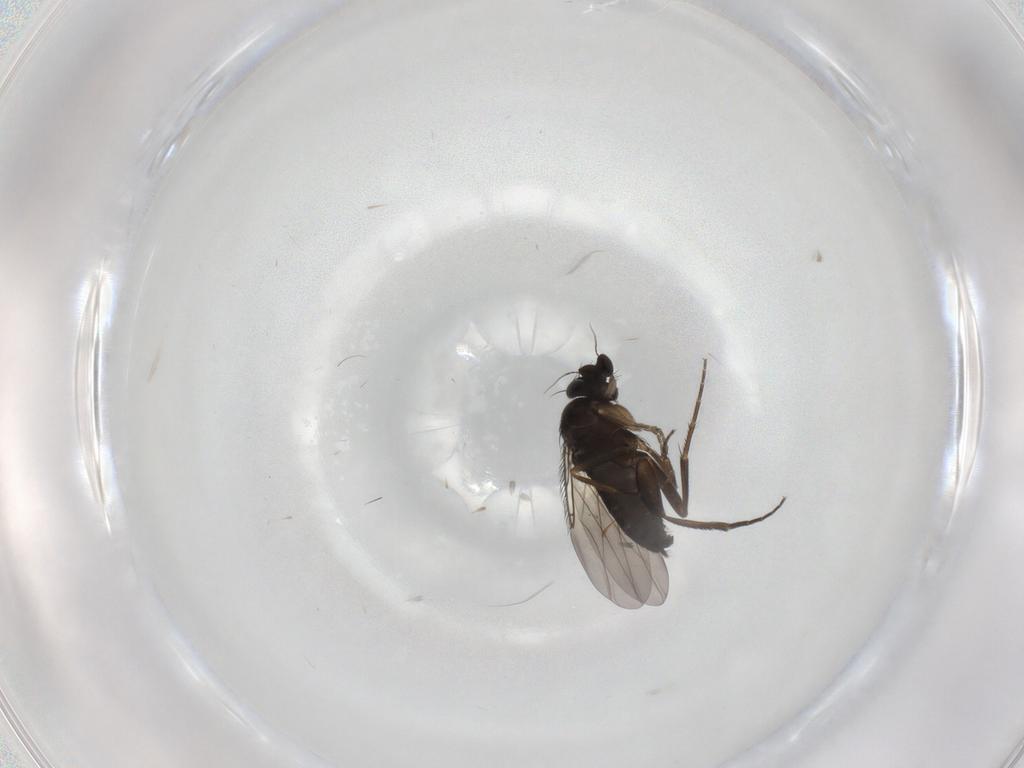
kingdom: Animalia
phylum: Arthropoda
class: Insecta
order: Diptera
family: Phoridae
